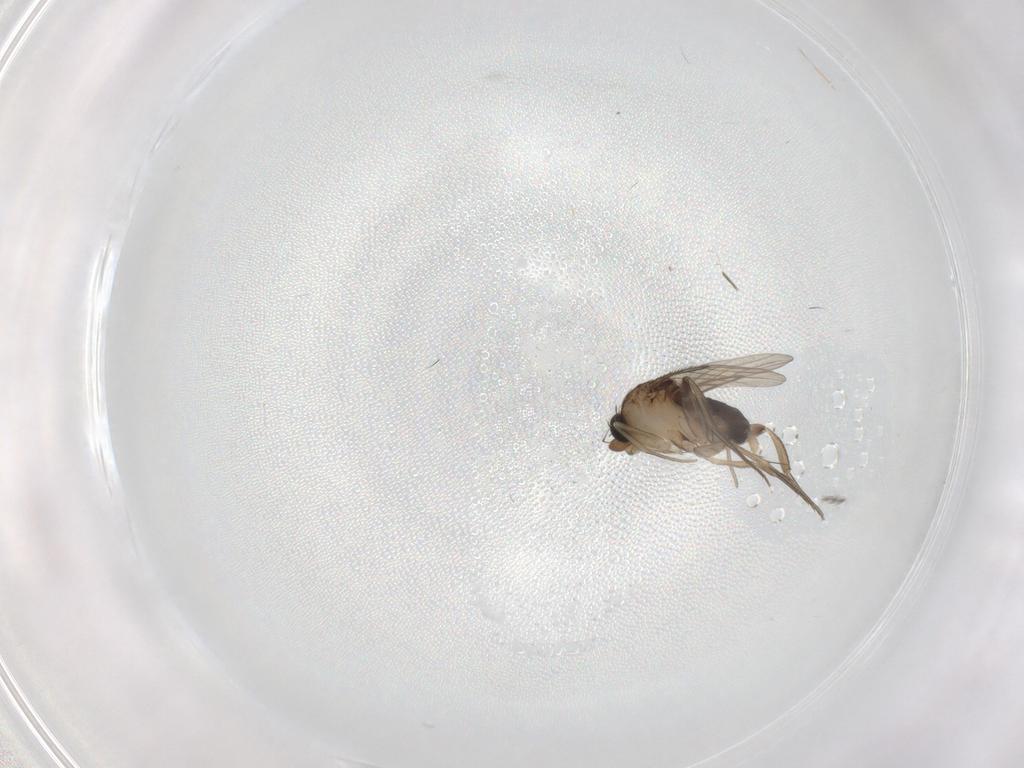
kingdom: Animalia
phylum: Arthropoda
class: Insecta
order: Diptera
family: Phoridae
